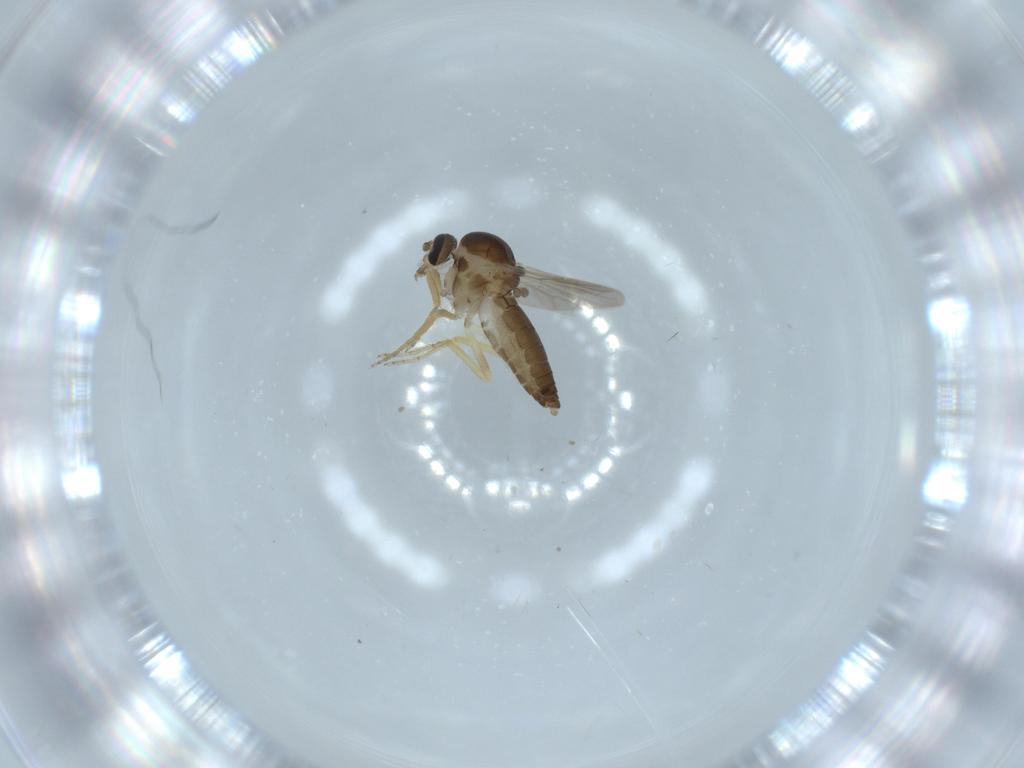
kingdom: Animalia
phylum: Arthropoda
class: Insecta
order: Diptera
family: Ceratopogonidae
